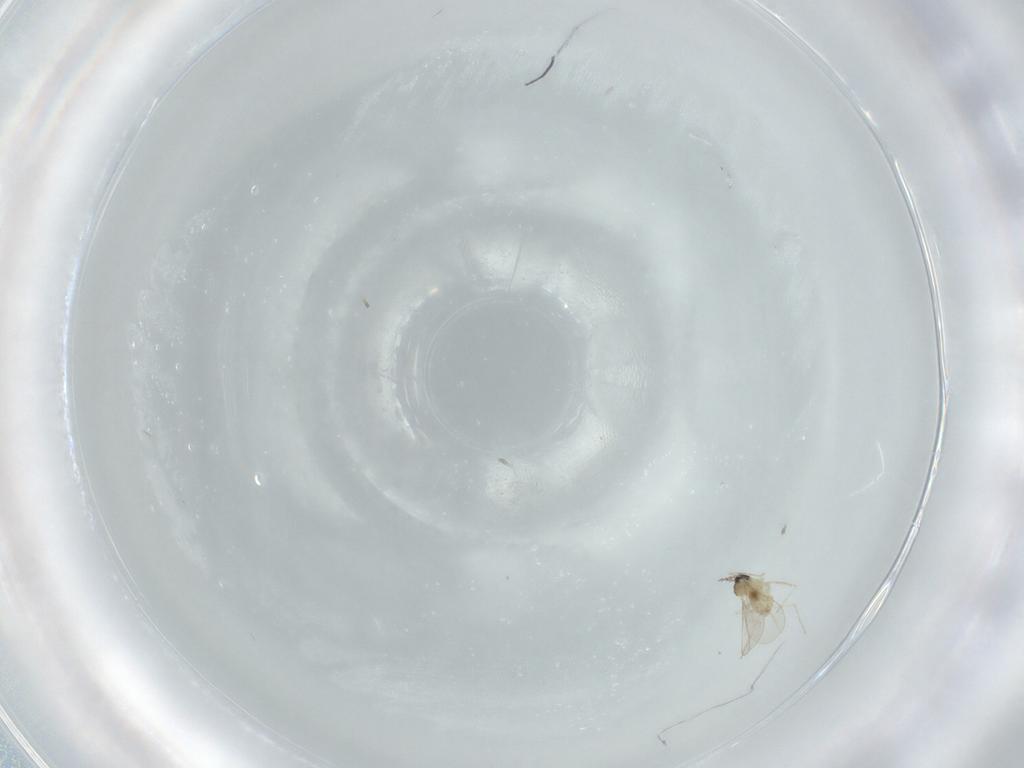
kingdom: Animalia
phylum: Arthropoda
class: Insecta
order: Diptera
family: Cecidomyiidae
